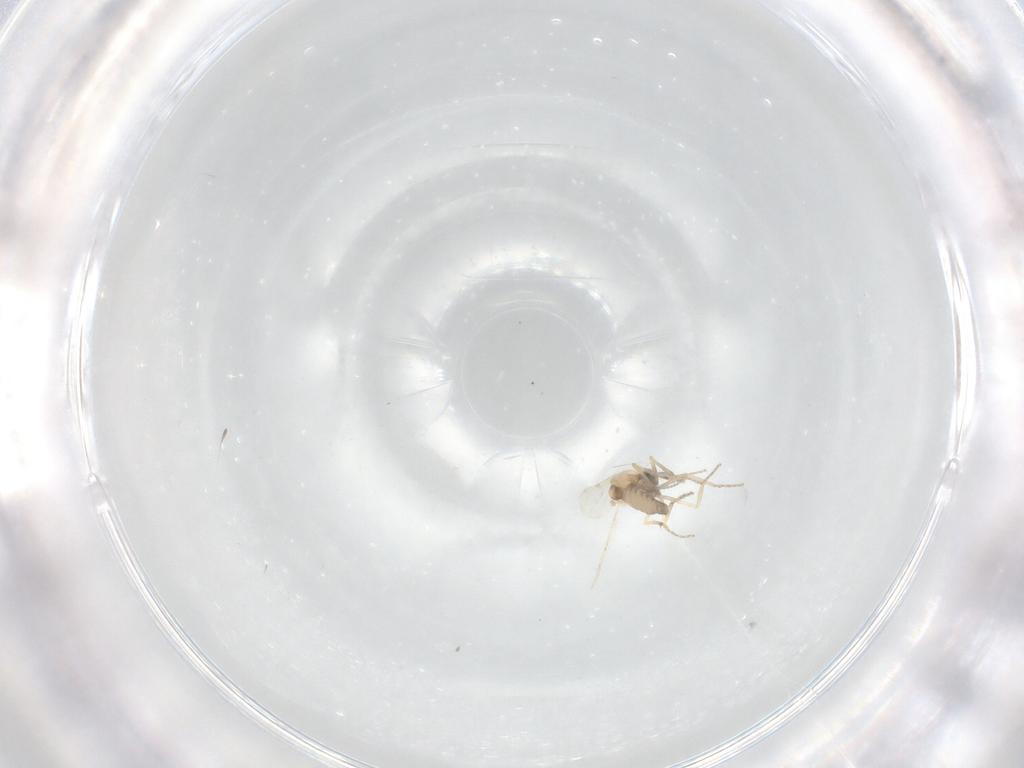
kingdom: Animalia
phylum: Arthropoda
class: Insecta
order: Diptera
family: Ceratopogonidae
